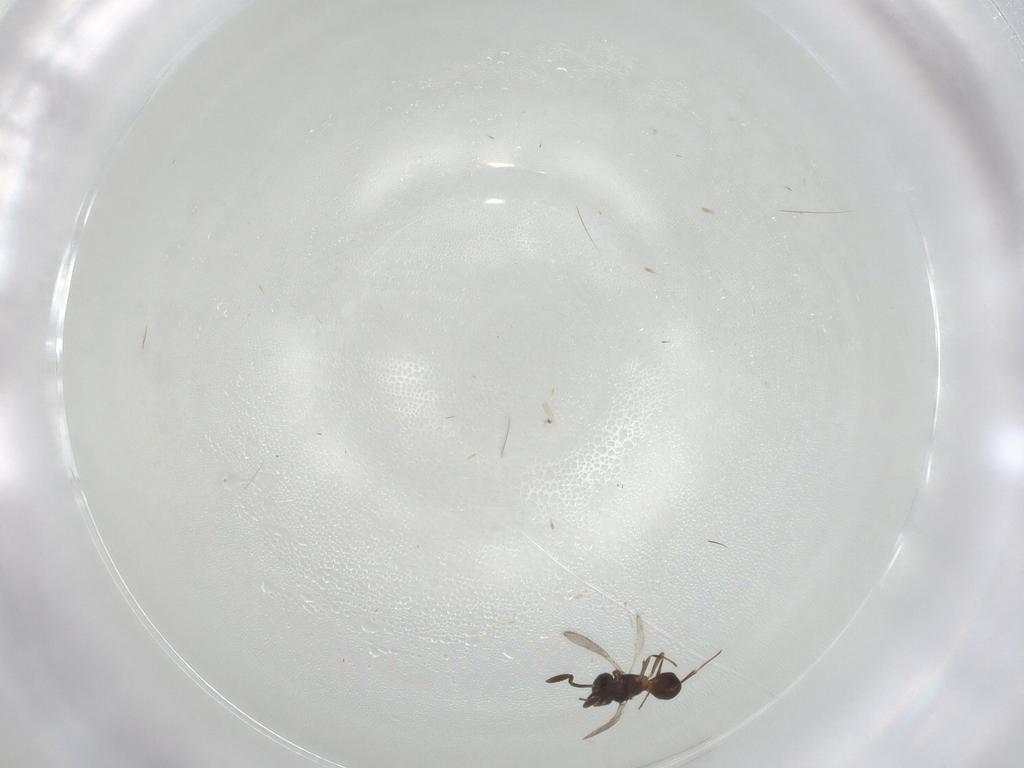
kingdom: Animalia
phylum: Arthropoda
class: Insecta
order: Hymenoptera
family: Scelionidae
